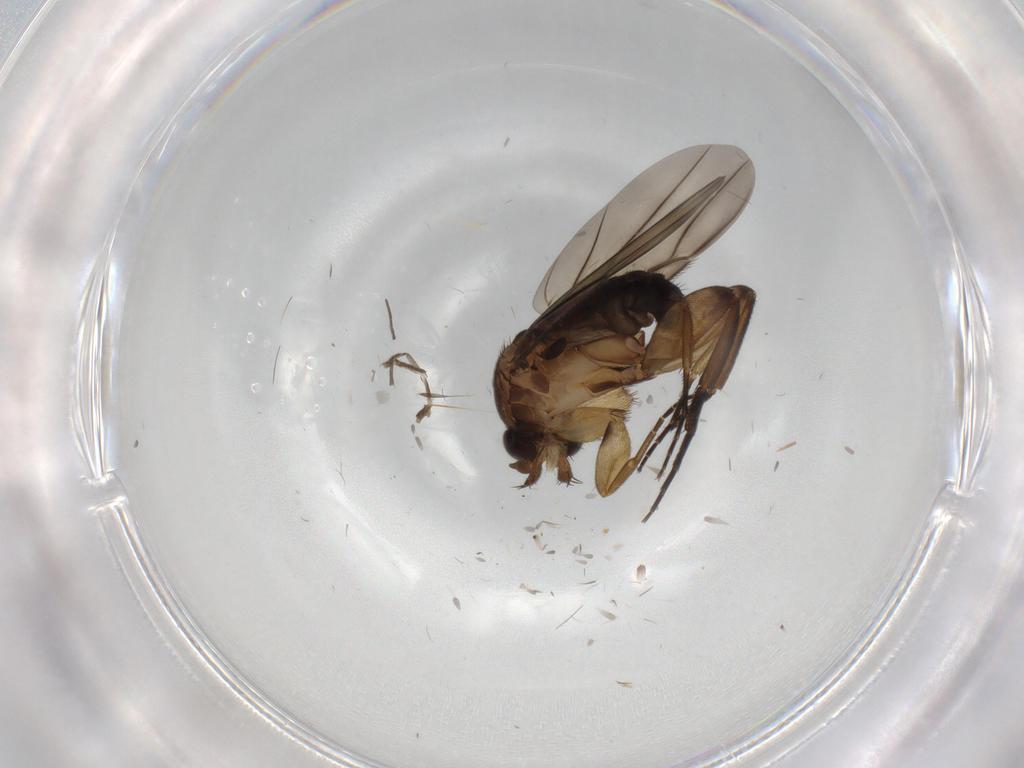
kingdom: Animalia
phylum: Arthropoda
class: Insecta
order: Diptera
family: Phoridae
